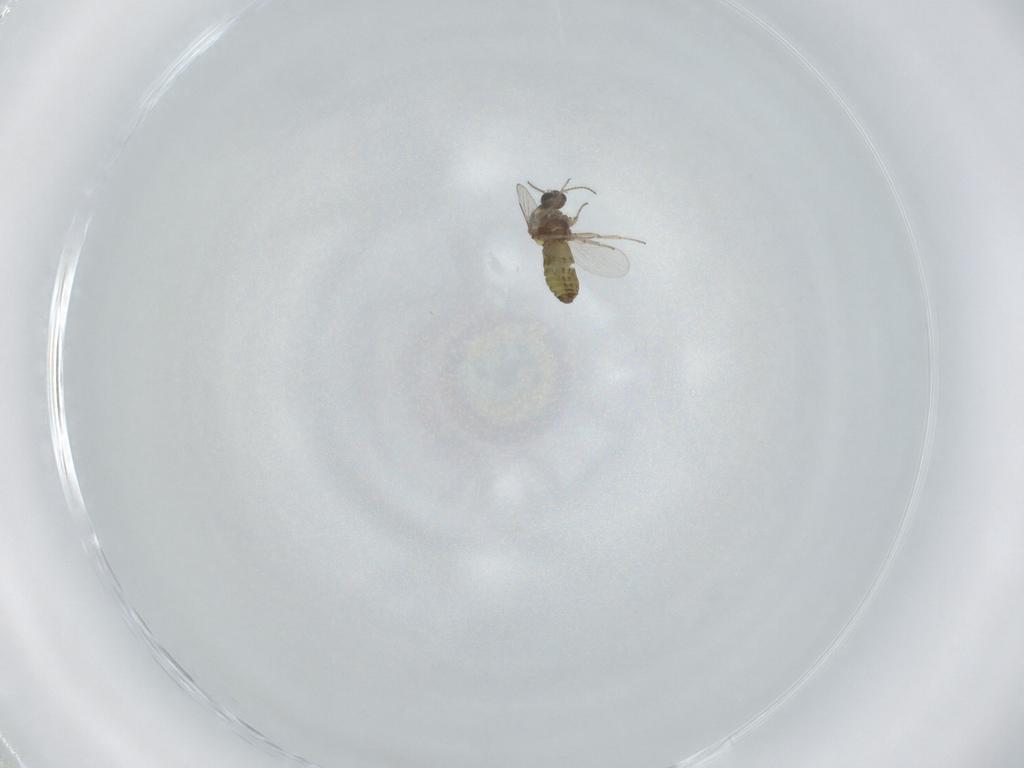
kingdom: Animalia
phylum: Arthropoda
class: Insecta
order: Diptera
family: Ceratopogonidae
